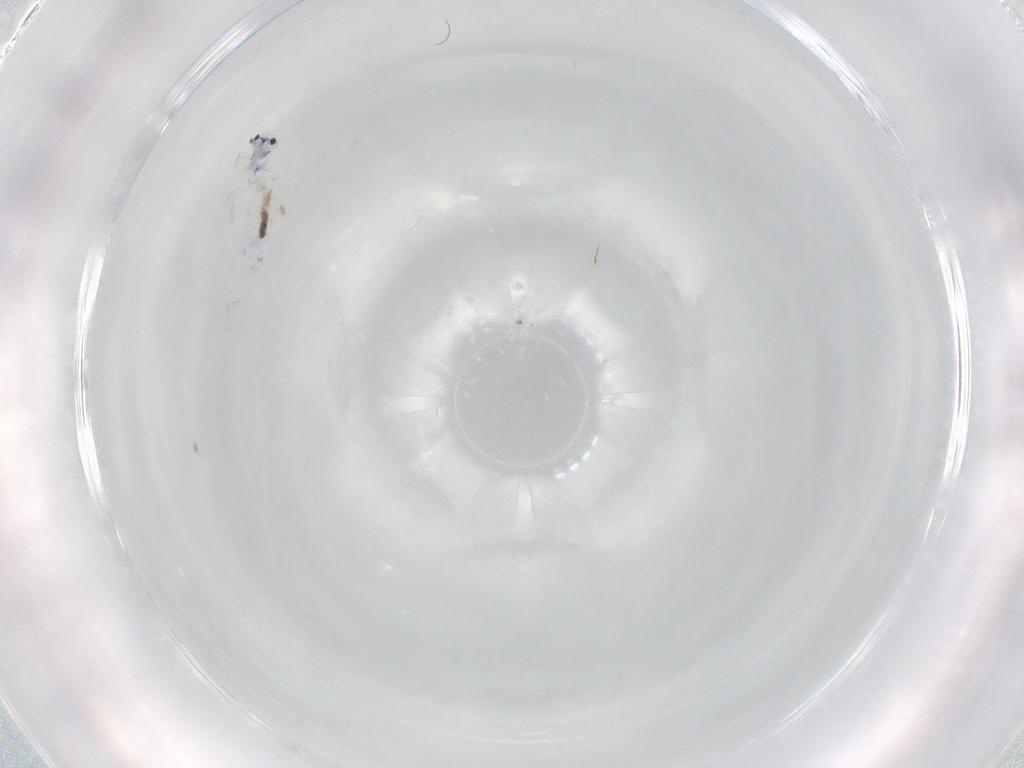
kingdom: Animalia
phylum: Arthropoda
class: Collembola
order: Entomobryomorpha
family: Entomobryidae
